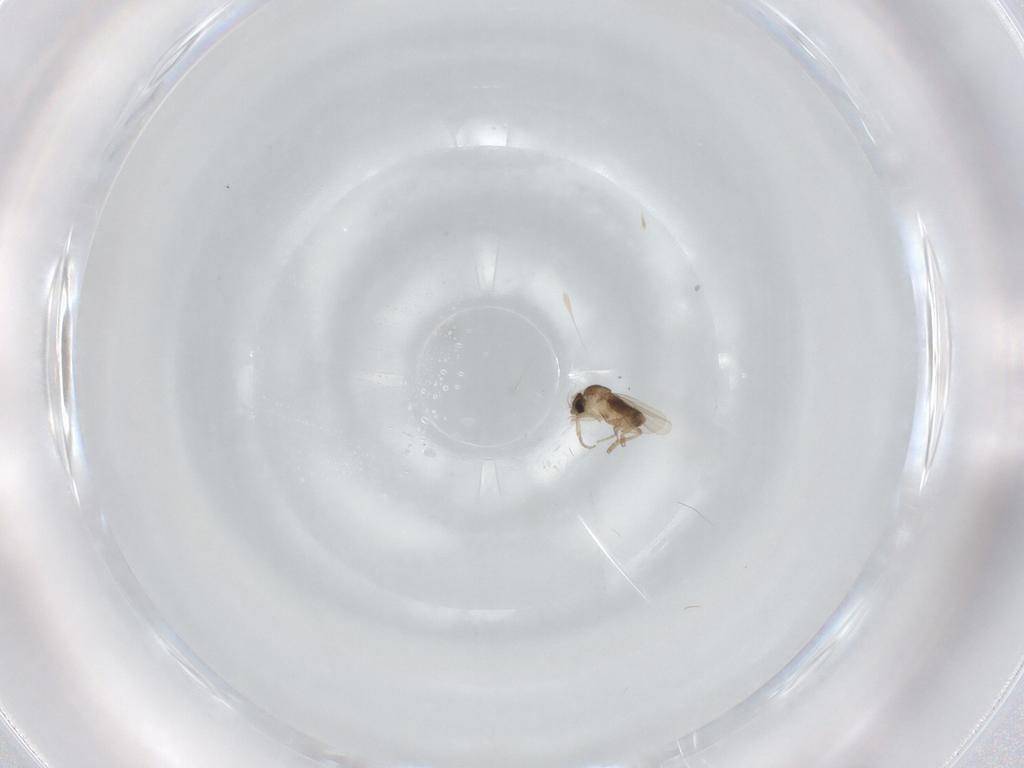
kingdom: Animalia
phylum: Arthropoda
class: Insecta
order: Diptera
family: Phoridae
